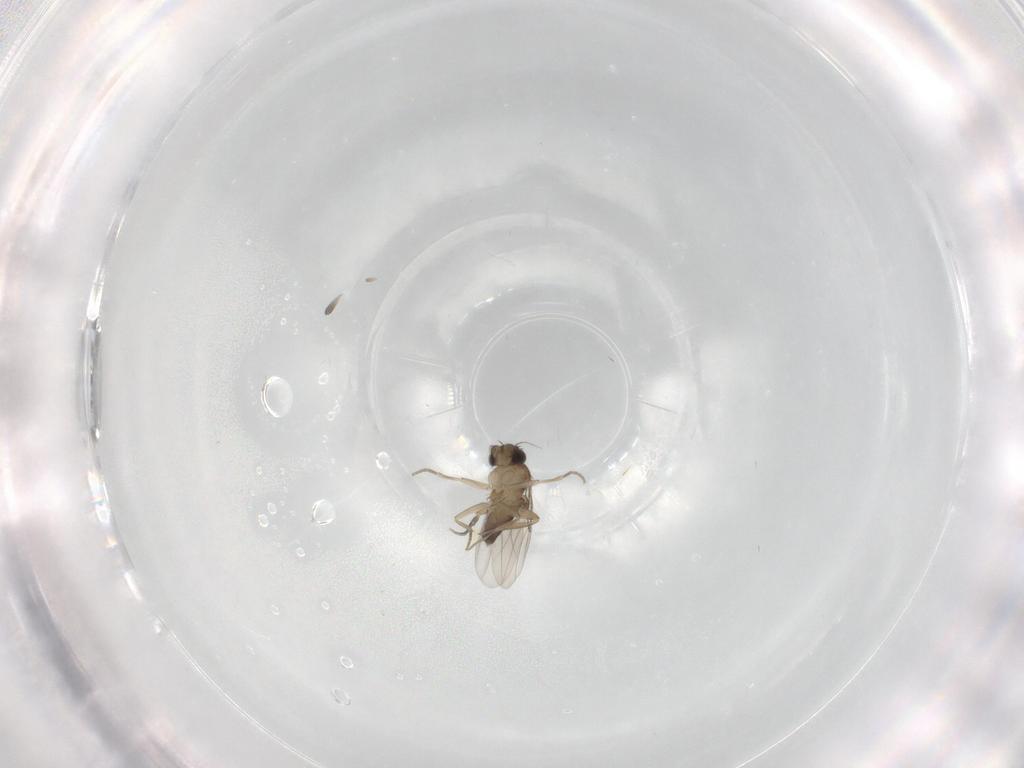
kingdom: Animalia
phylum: Arthropoda
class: Insecta
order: Diptera
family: Phoridae
